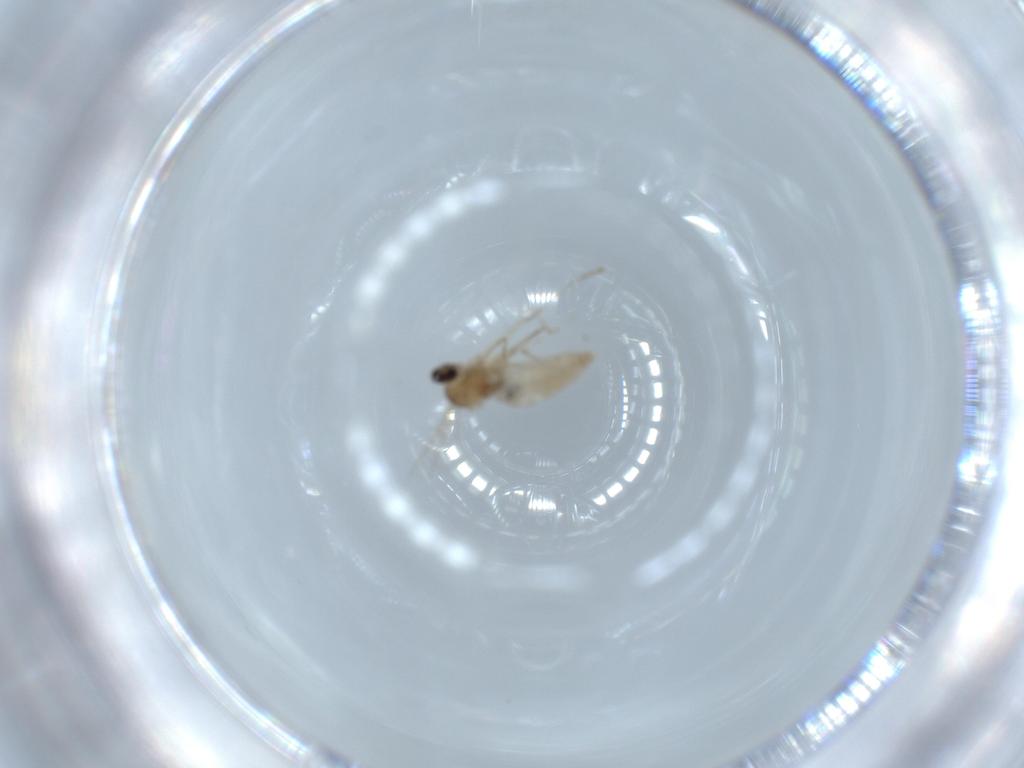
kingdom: Animalia
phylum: Arthropoda
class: Insecta
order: Diptera
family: Cecidomyiidae
